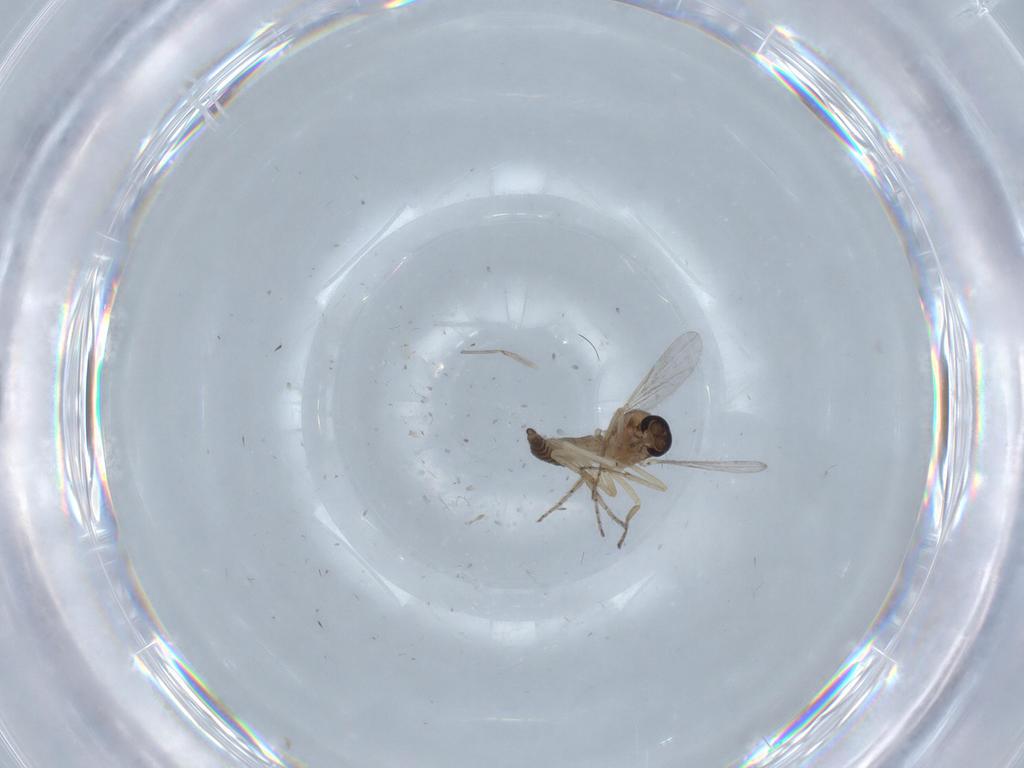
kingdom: Animalia
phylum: Arthropoda
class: Insecta
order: Diptera
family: Ceratopogonidae
